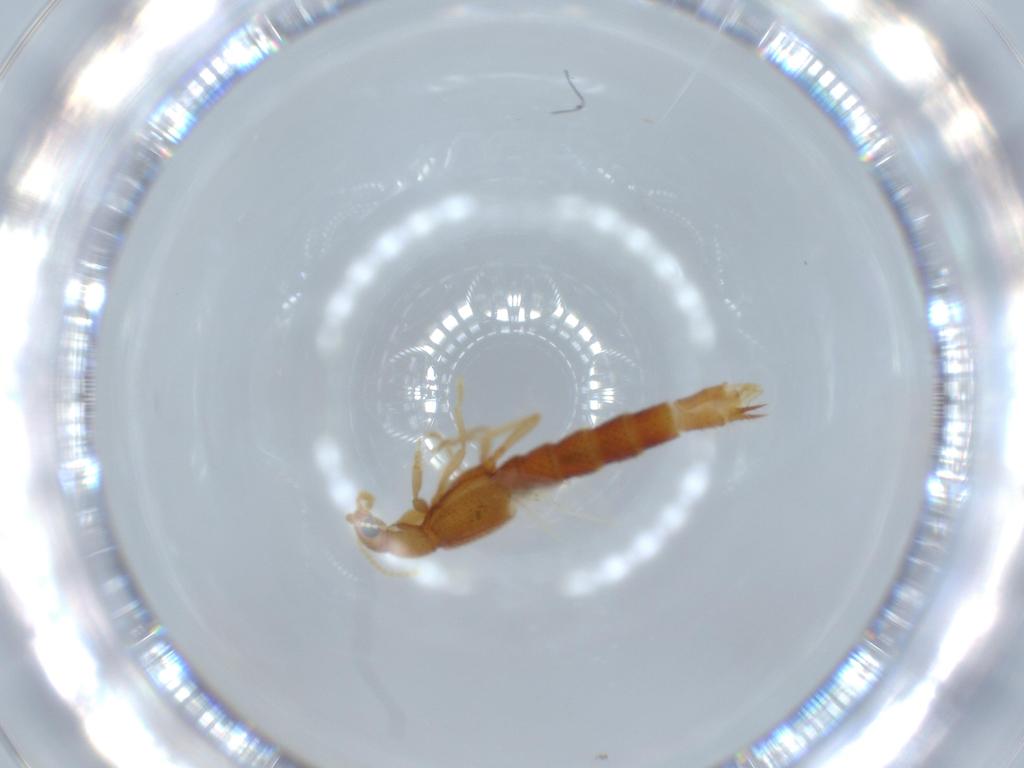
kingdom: Animalia
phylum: Arthropoda
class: Insecta
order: Coleoptera
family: Staphylinidae
